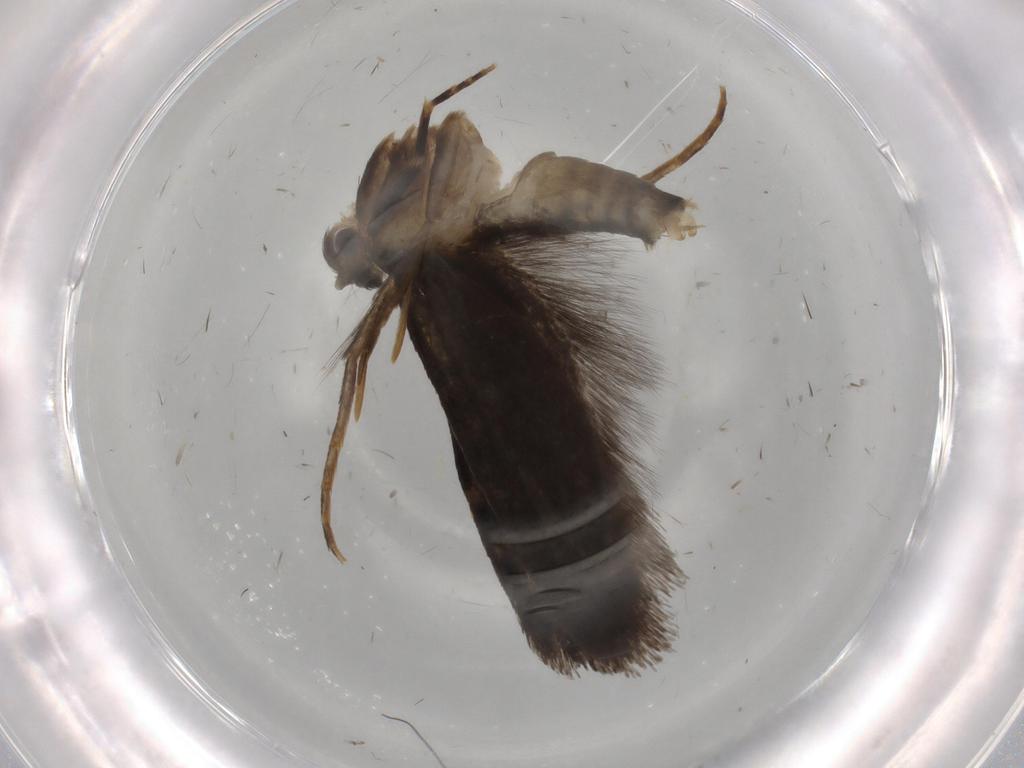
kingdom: Animalia
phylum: Arthropoda
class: Insecta
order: Lepidoptera
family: Tineidae
